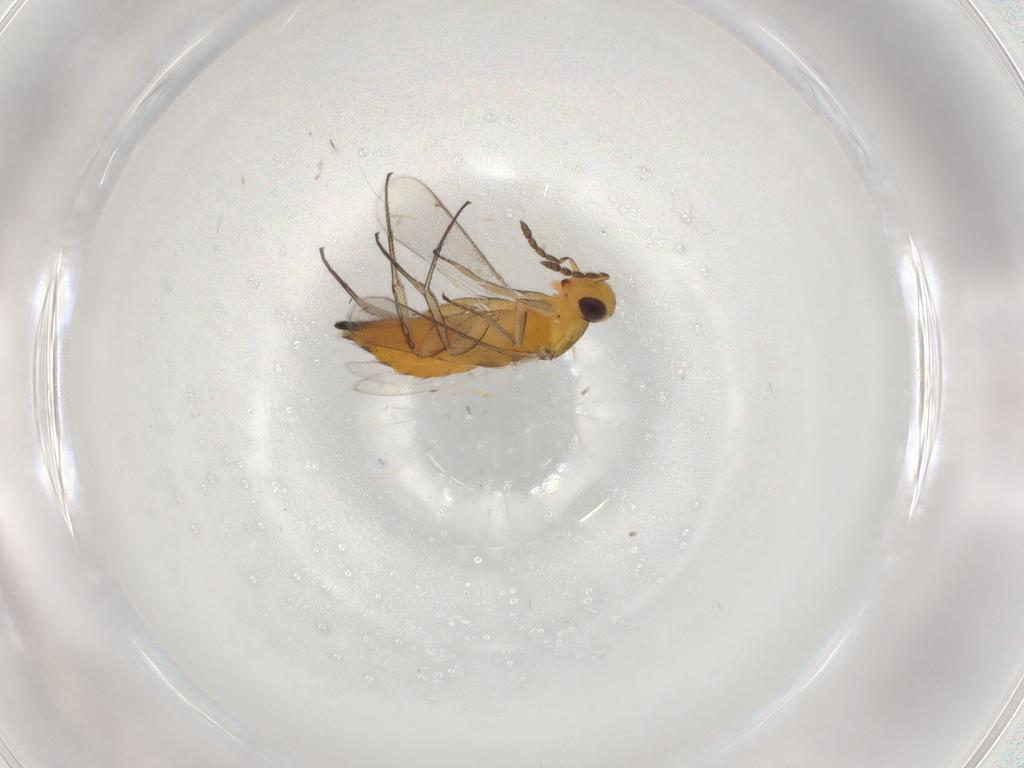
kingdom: Animalia
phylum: Arthropoda
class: Insecta
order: Hymenoptera
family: Eulophidae
